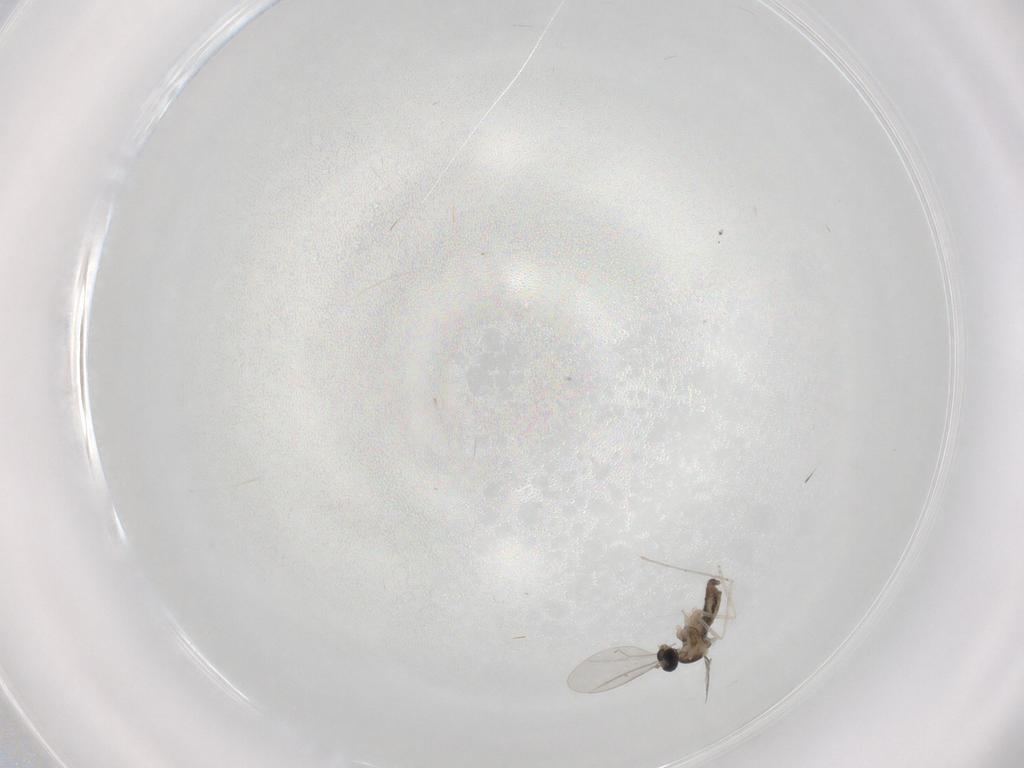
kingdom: Animalia
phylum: Arthropoda
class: Insecta
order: Diptera
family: Cecidomyiidae
